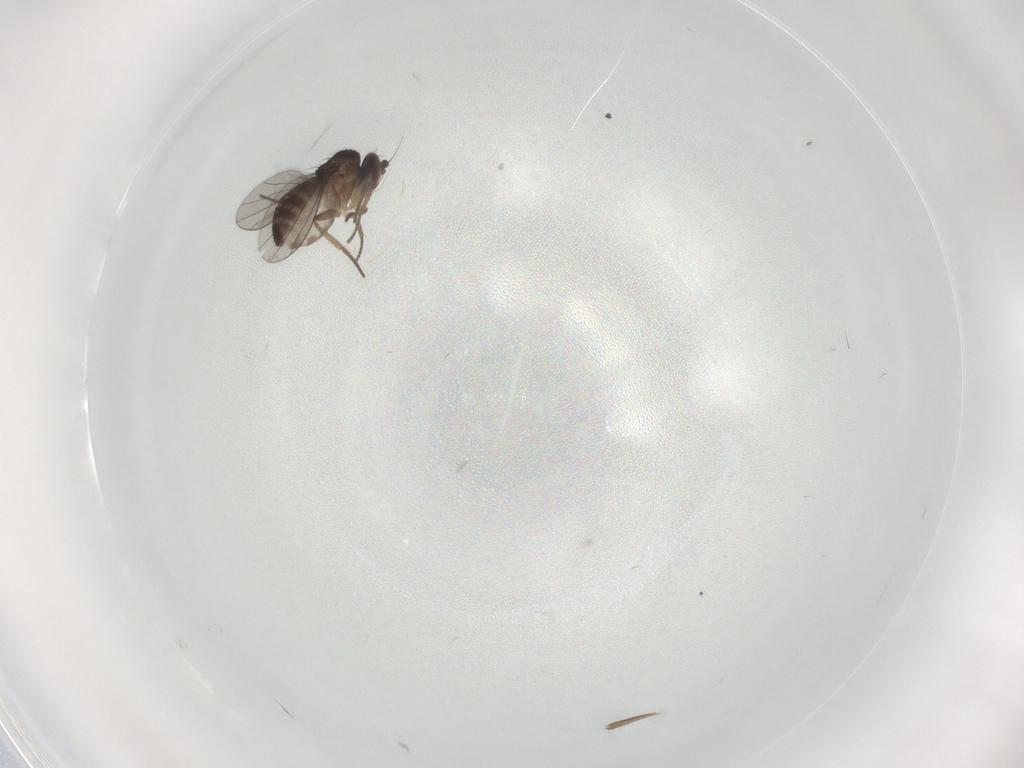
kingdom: Animalia
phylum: Arthropoda
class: Insecta
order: Diptera
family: Dolichopodidae
